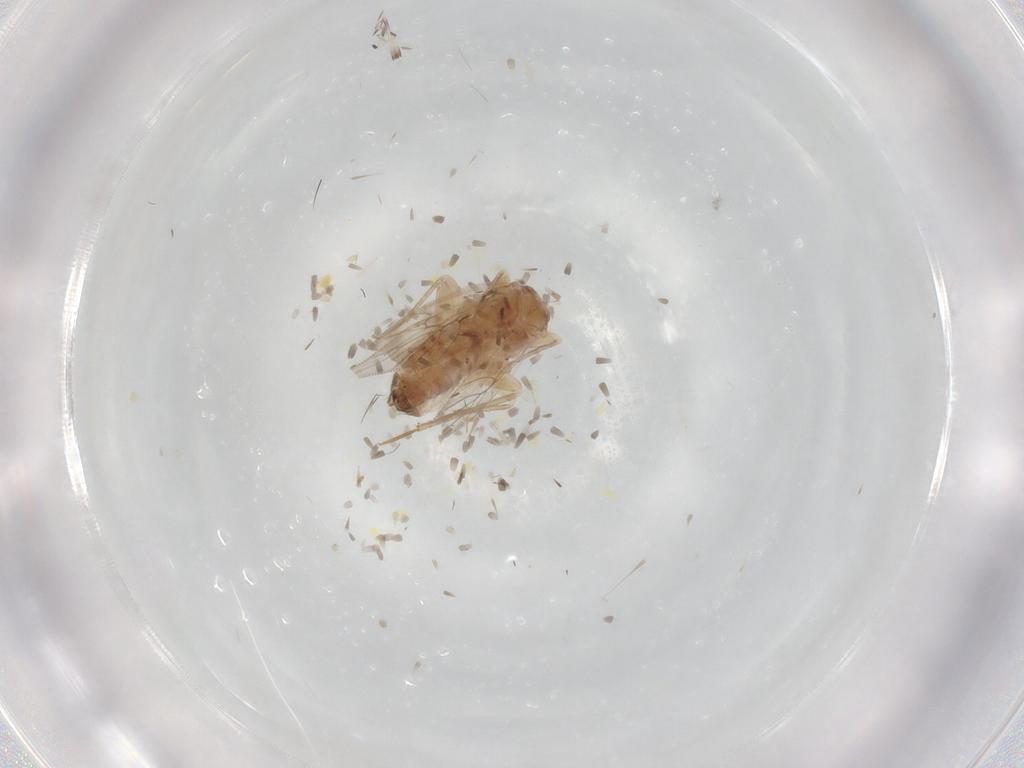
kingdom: Animalia
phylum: Arthropoda
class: Insecta
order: Psocodea
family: Lepidopsocidae
